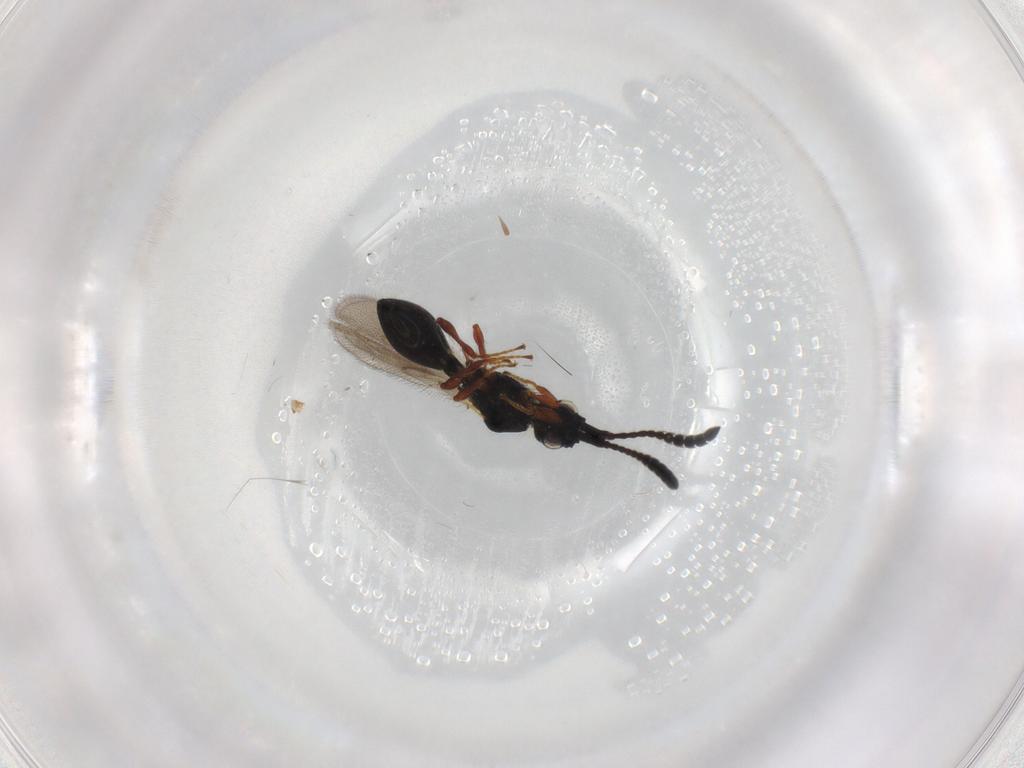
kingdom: Animalia
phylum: Arthropoda
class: Insecta
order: Hymenoptera
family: Diapriidae
